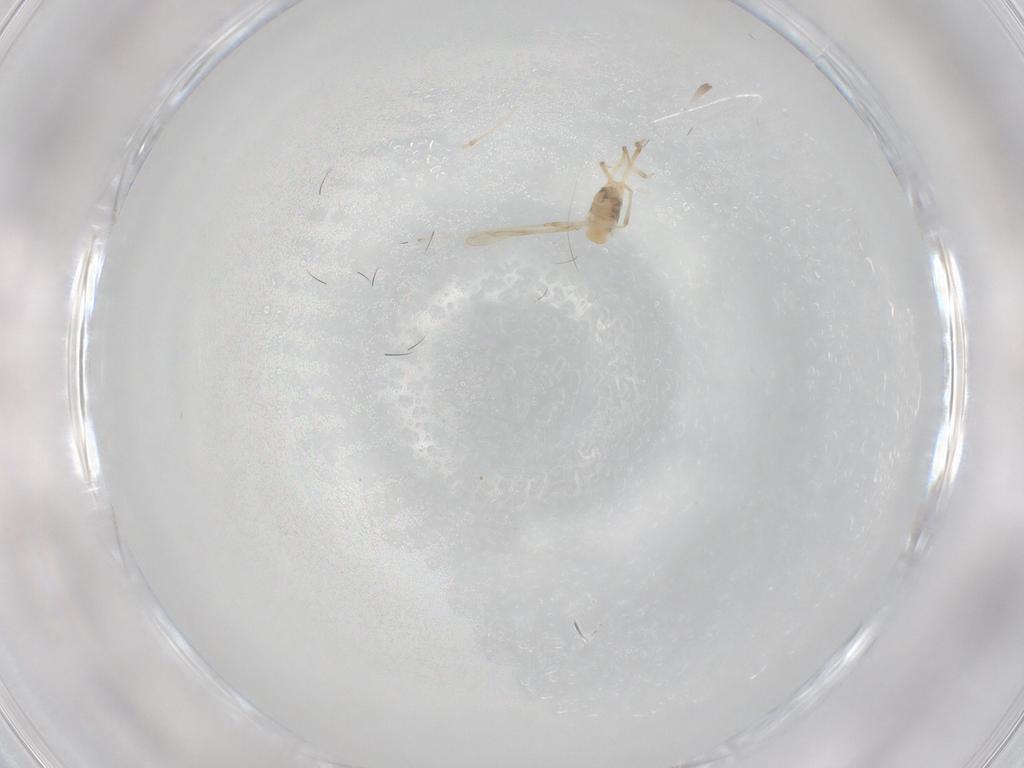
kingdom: Animalia
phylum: Arthropoda
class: Insecta
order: Diptera
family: Cecidomyiidae
